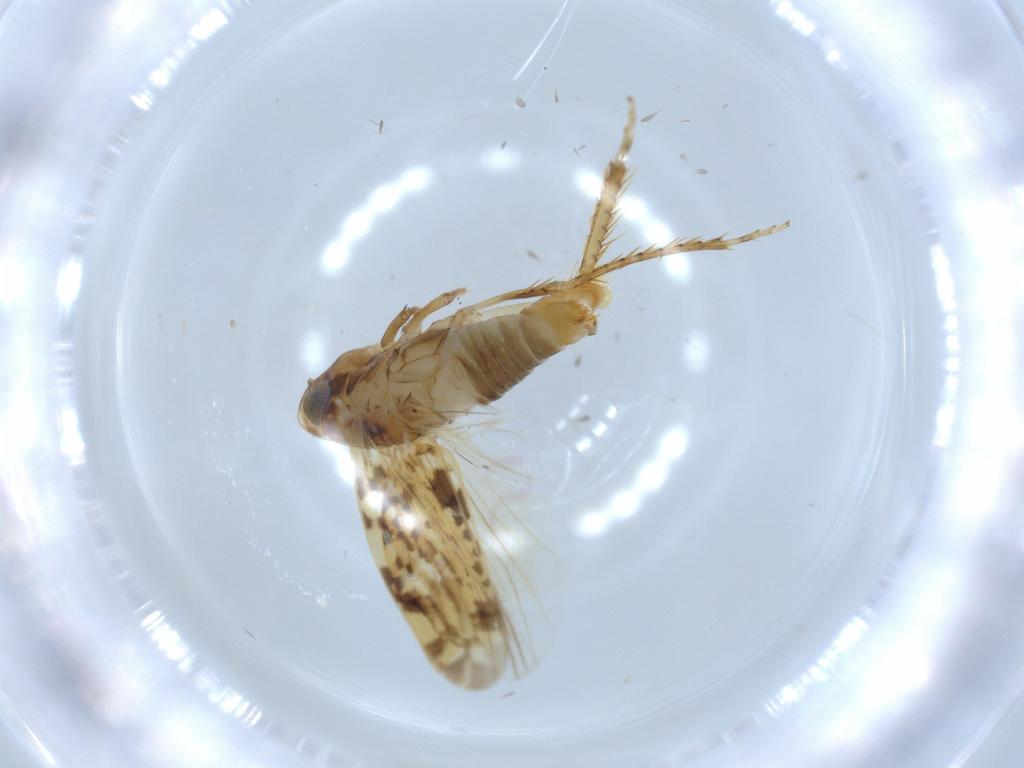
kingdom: Animalia
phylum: Arthropoda
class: Insecta
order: Hemiptera
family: Cicadellidae
